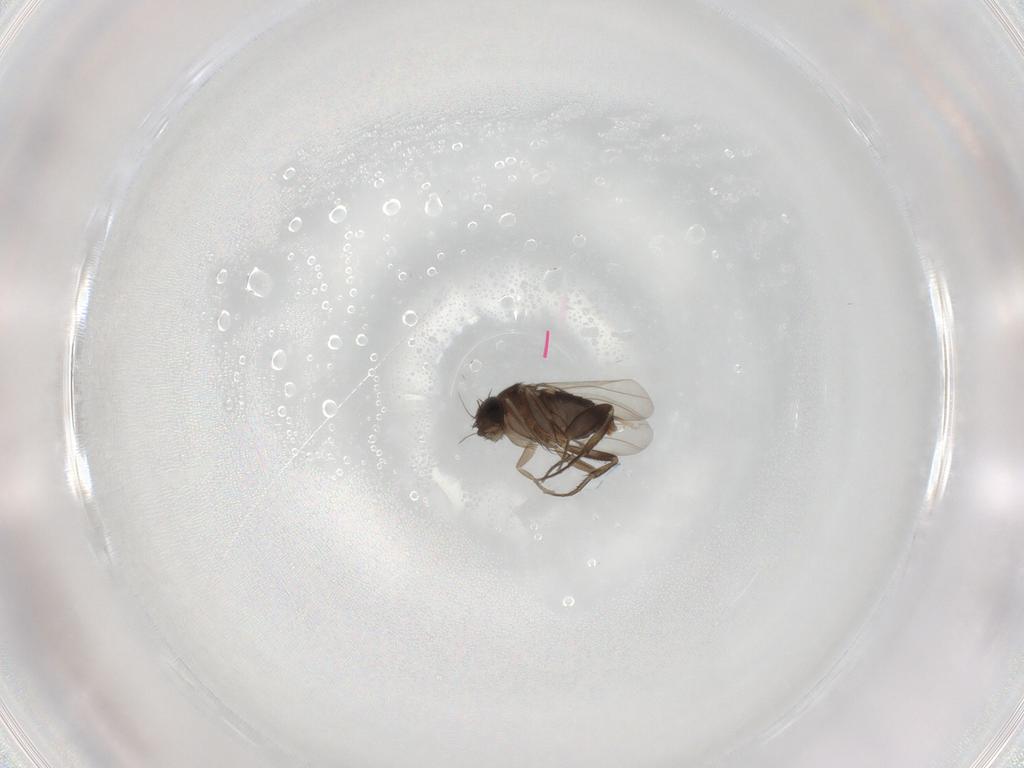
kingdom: Animalia
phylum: Arthropoda
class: Insecta
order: Diptera
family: Phoridae
